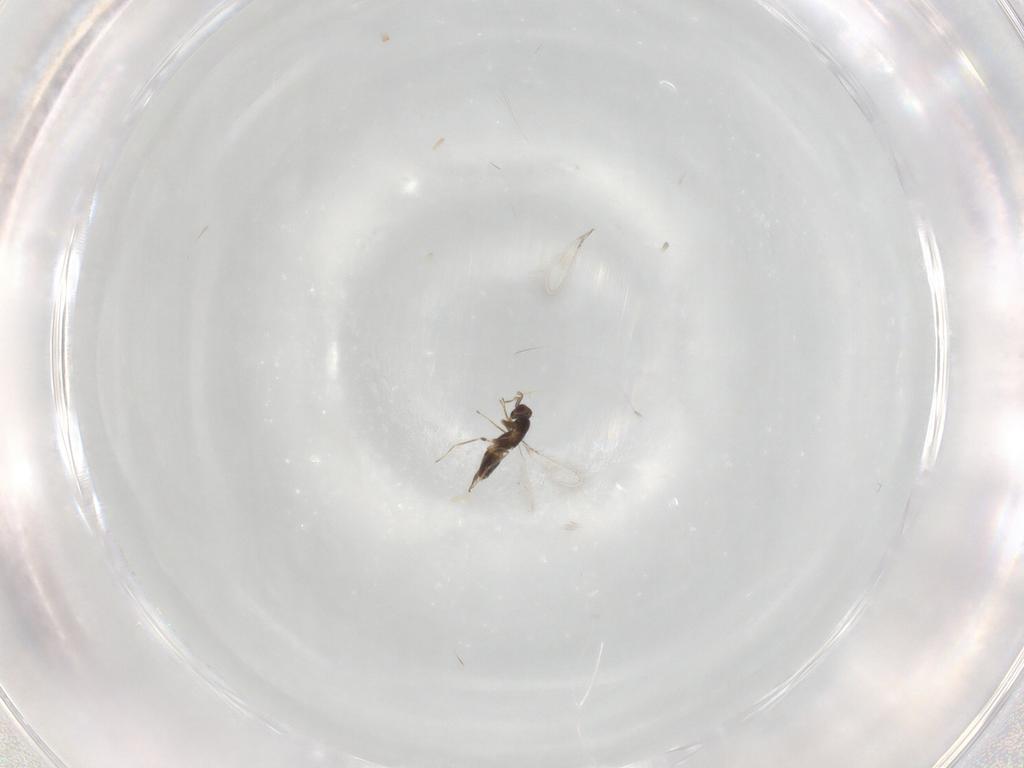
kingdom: Animalia
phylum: Arthropoda
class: Insecta
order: Hymenoptera
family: Mymaridae
